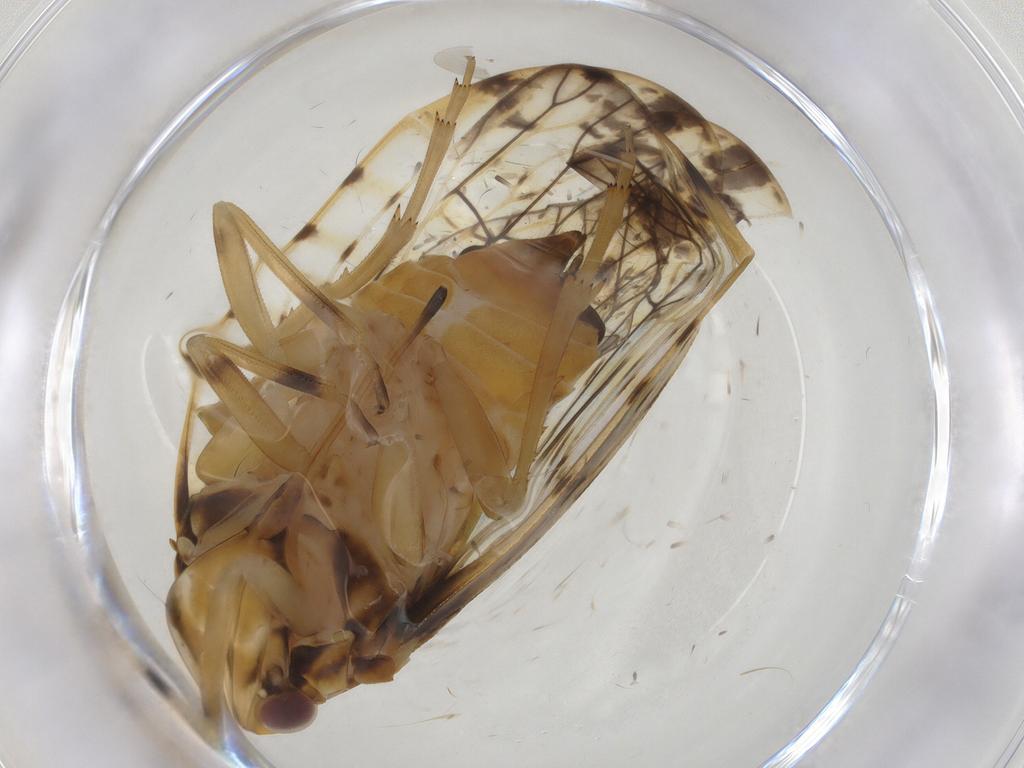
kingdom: Animalia
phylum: Arthropoda
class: Insecta
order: Hemiptera
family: Cixiidae
